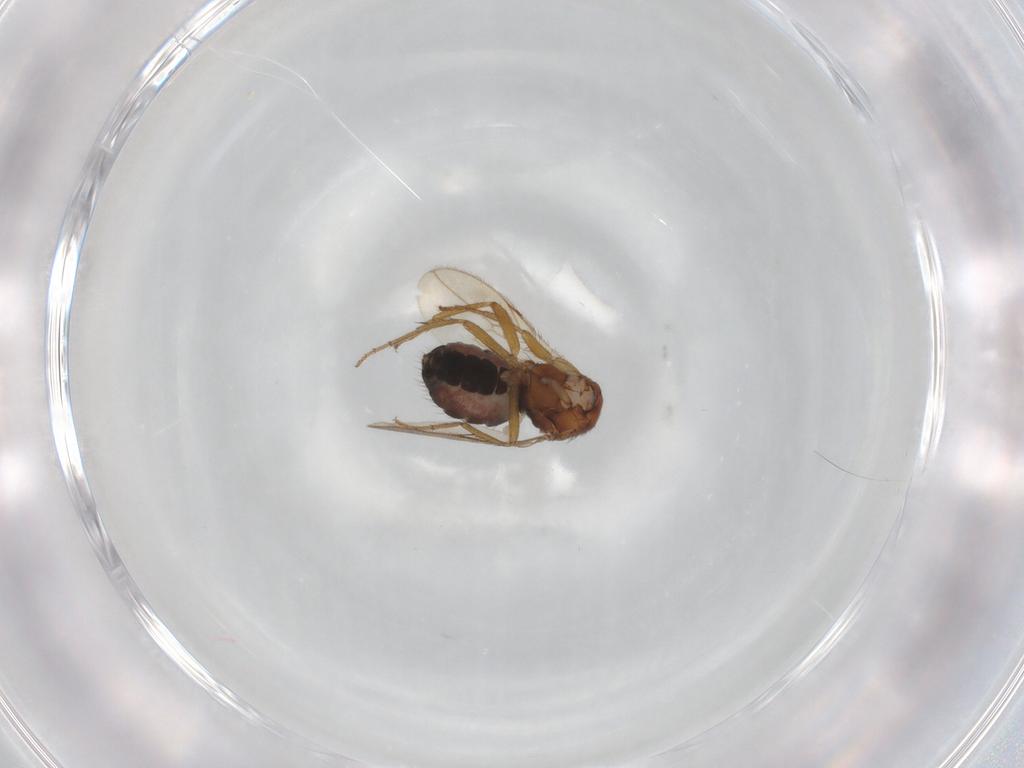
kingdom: Animalia
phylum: Arthropoda
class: Insecta
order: Diptera
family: Sphaeroceridae
